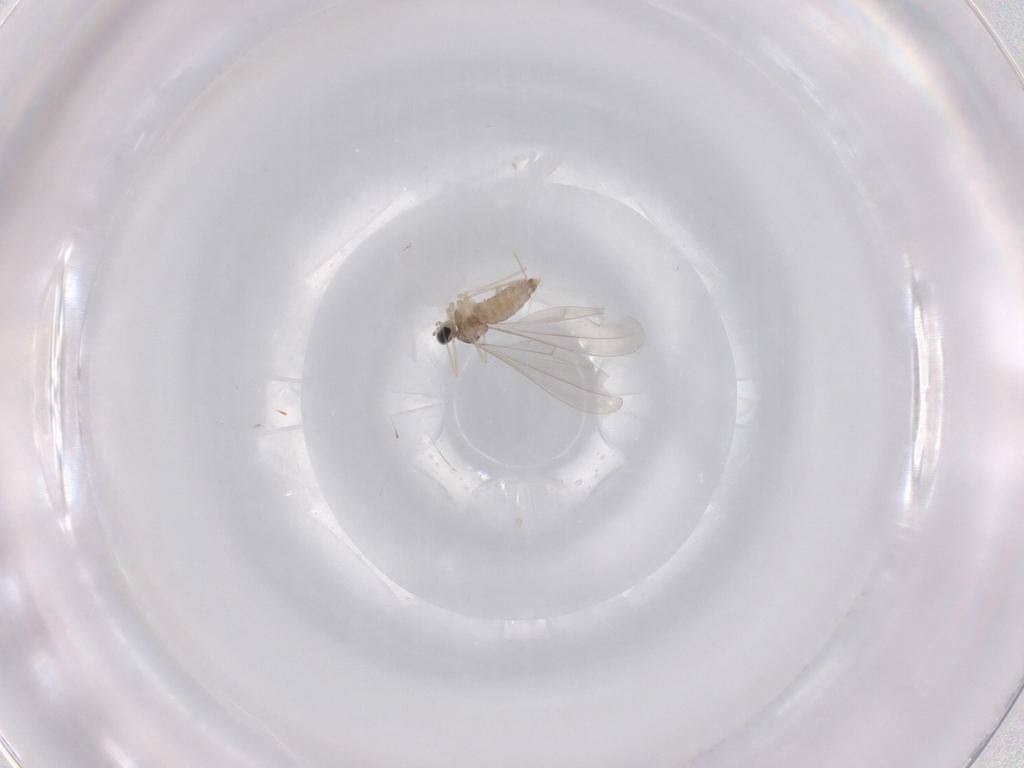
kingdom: Animalia
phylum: Arthropoda
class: Insecta
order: Diptera
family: Cecidomyiidae
